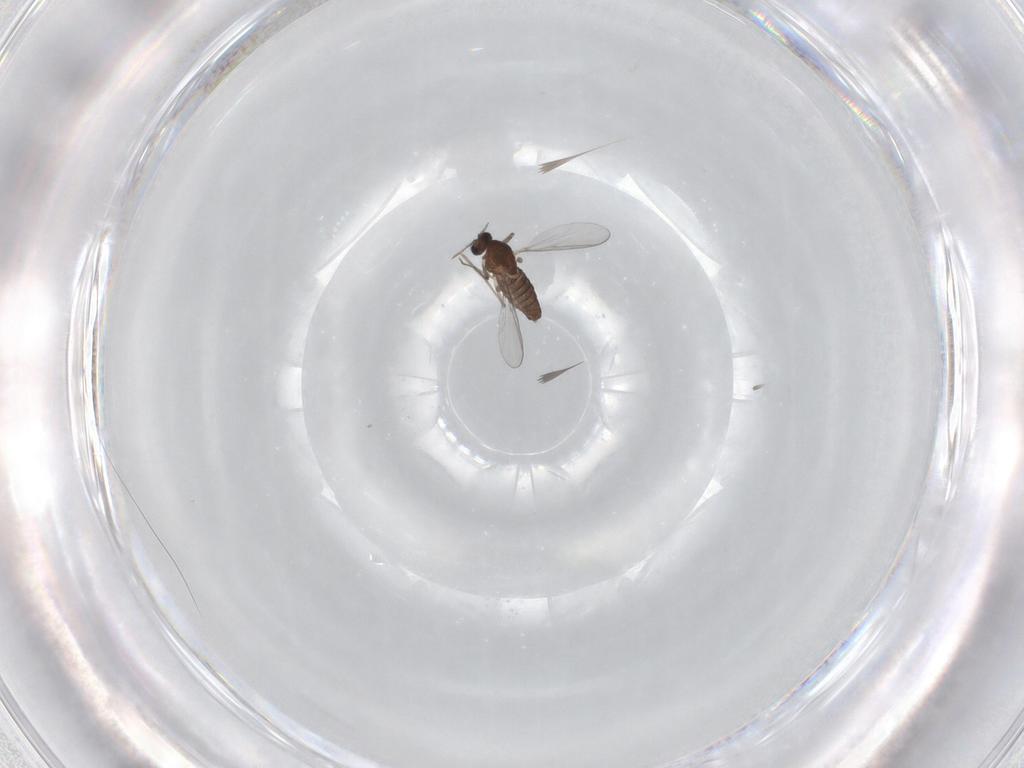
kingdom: Animalia
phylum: Arthropoda
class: Insecta
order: Diptera
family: Chironomidae
